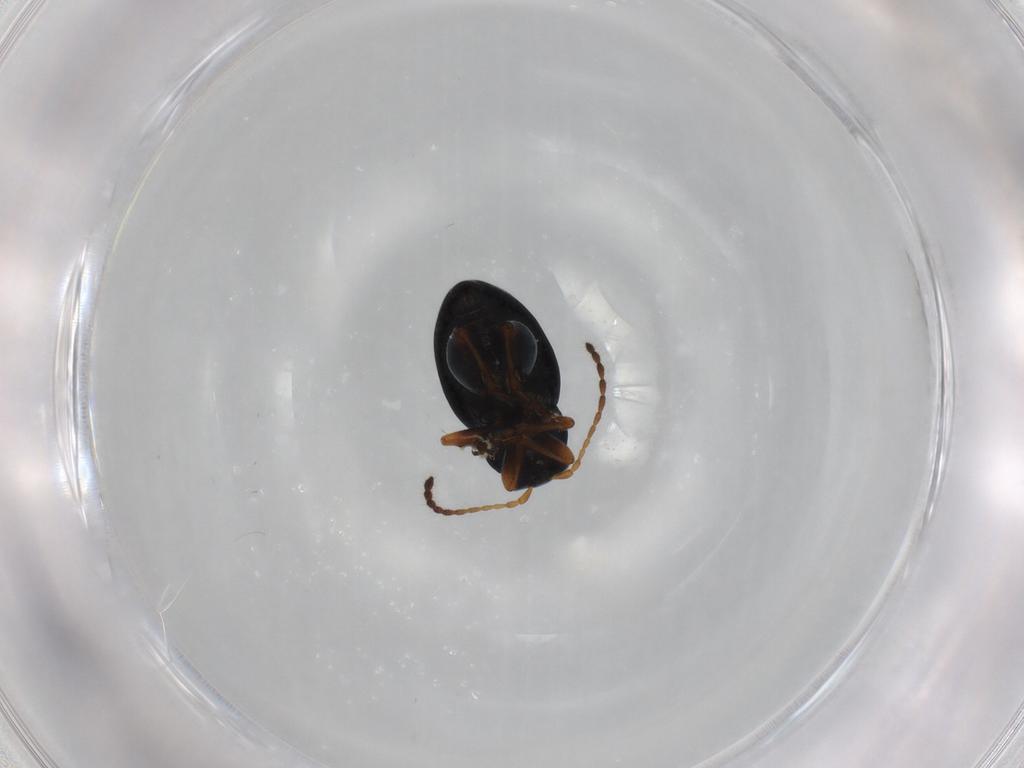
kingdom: Animalia
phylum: Arthropoda
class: Insecta
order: Coleoptera
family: Chrysomelidae
